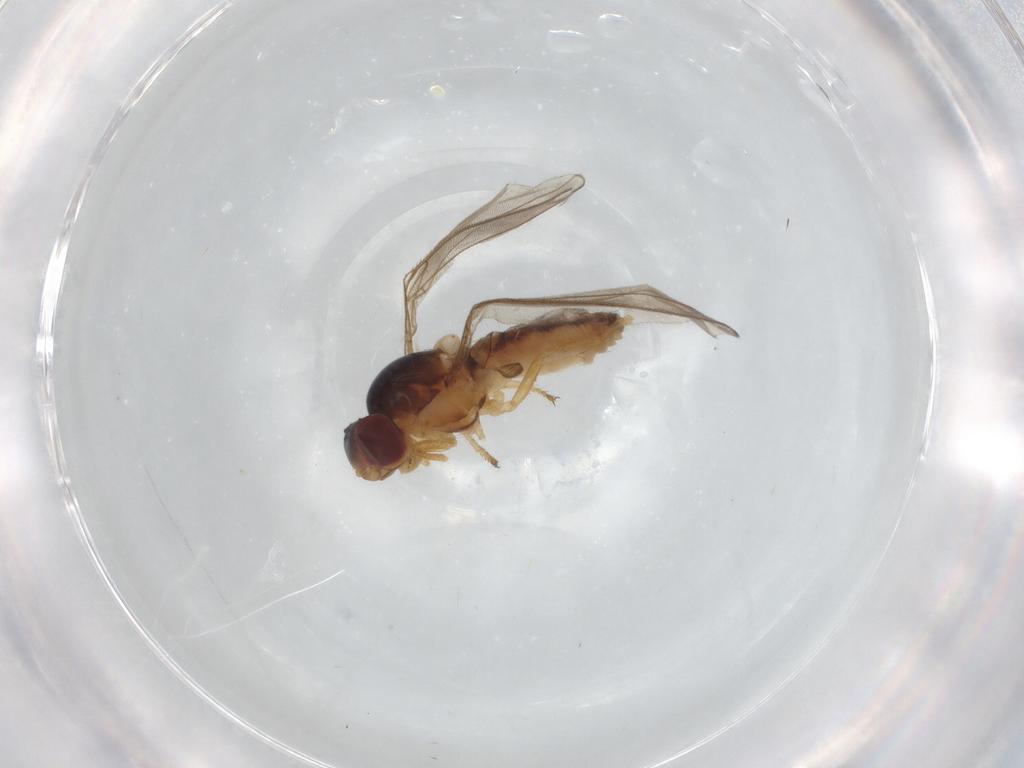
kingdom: Animalia
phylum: Arthropoda
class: Insecta
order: Diptera
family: Asteiidae
